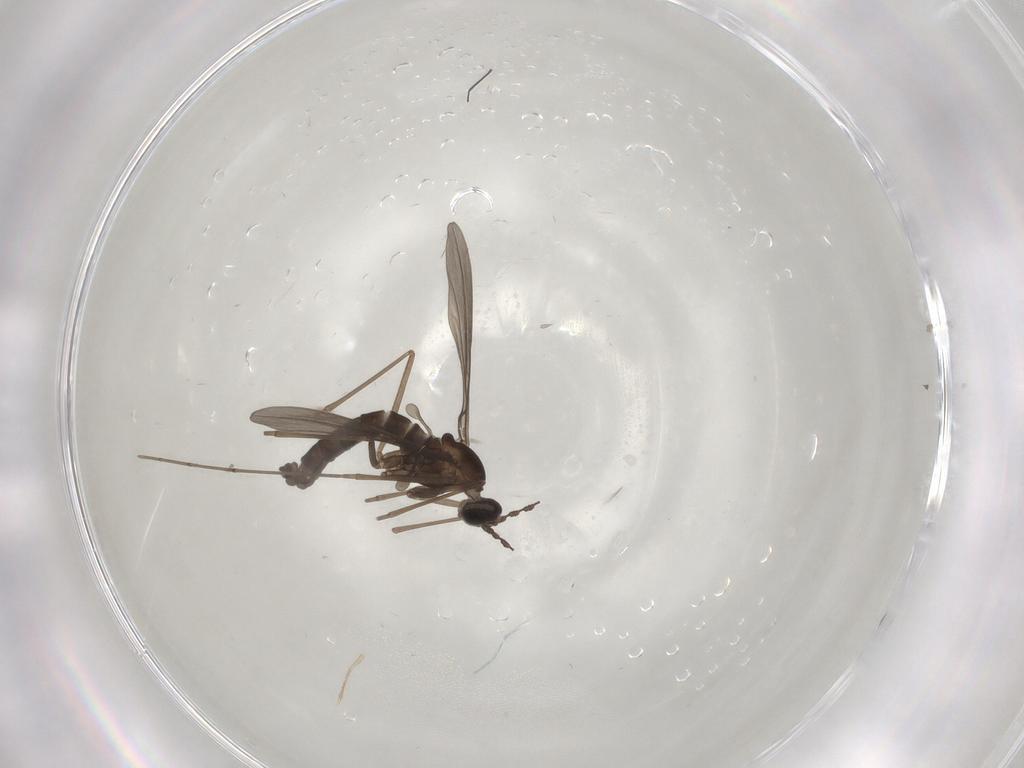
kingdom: Animalia
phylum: Arthropoda
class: Insecta
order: Diptera
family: Cecidomyiidae
